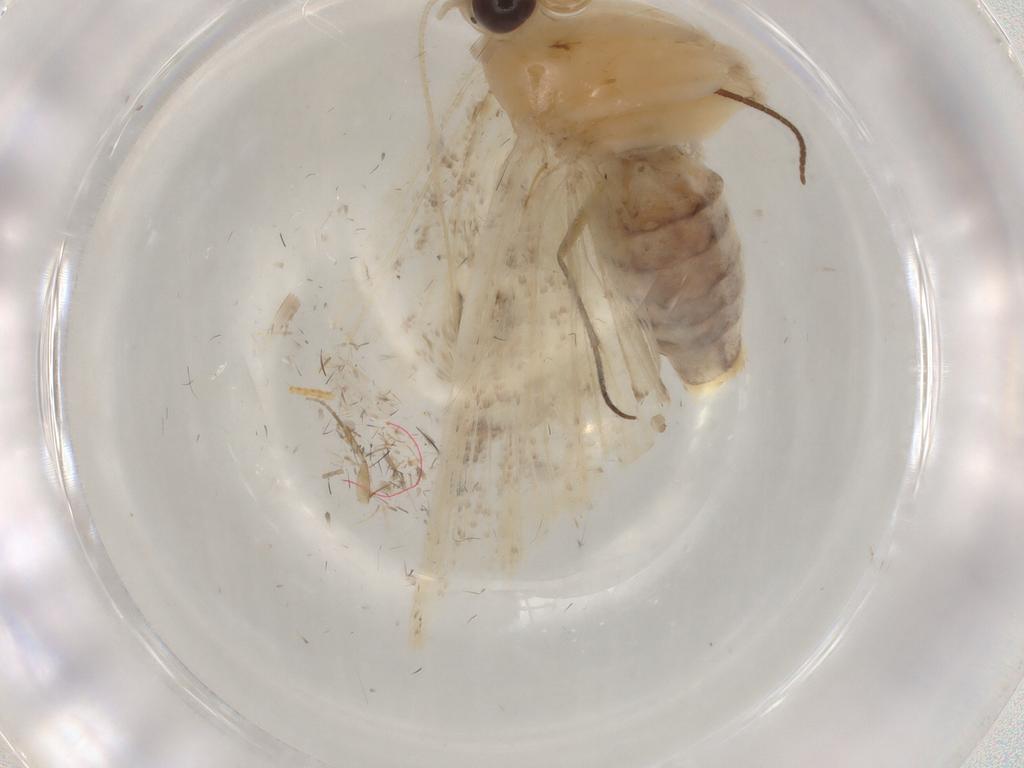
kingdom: Animalia
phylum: Arthropoda
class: Insecta
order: Lepidoptera
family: Crambidae
